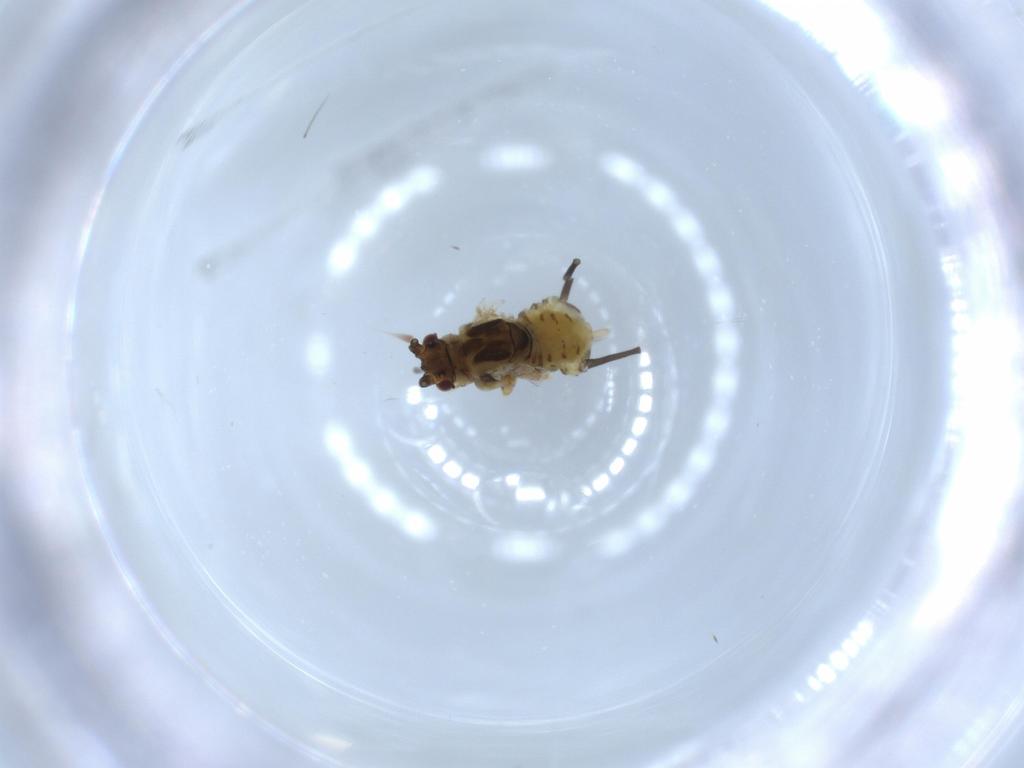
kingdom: Animalia
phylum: Arthropoda
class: Insecta
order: Hemiptera
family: Aphididae
